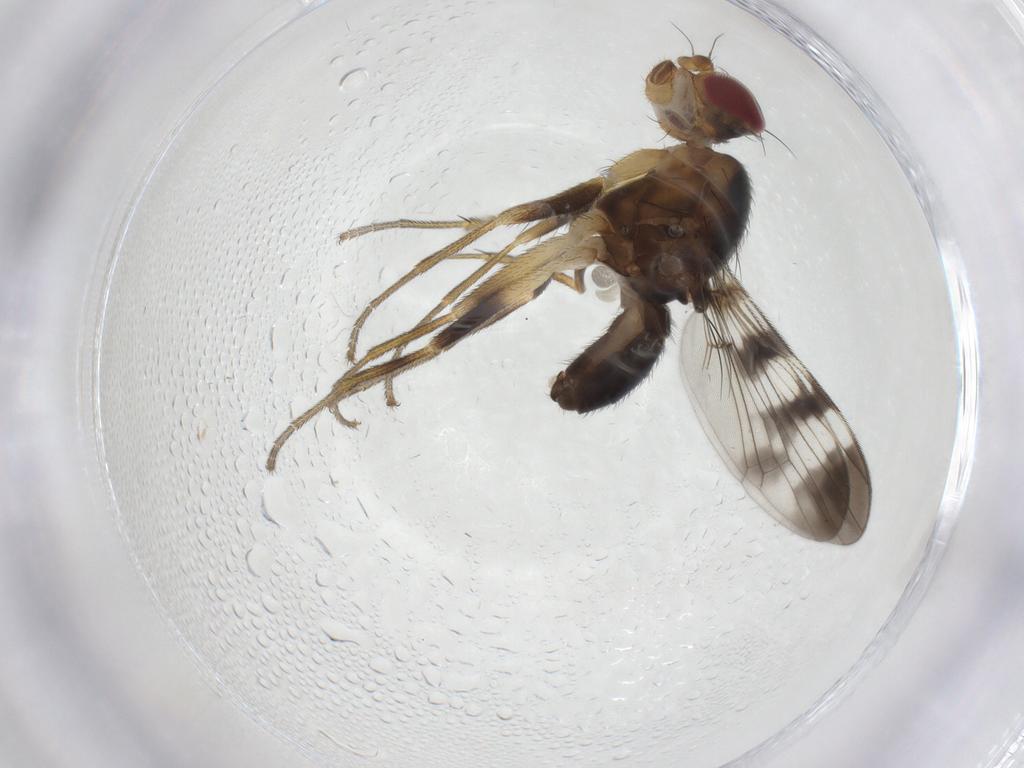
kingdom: Animalia
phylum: Arthropoda
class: Insecta
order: Diptera
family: Tephritidae
